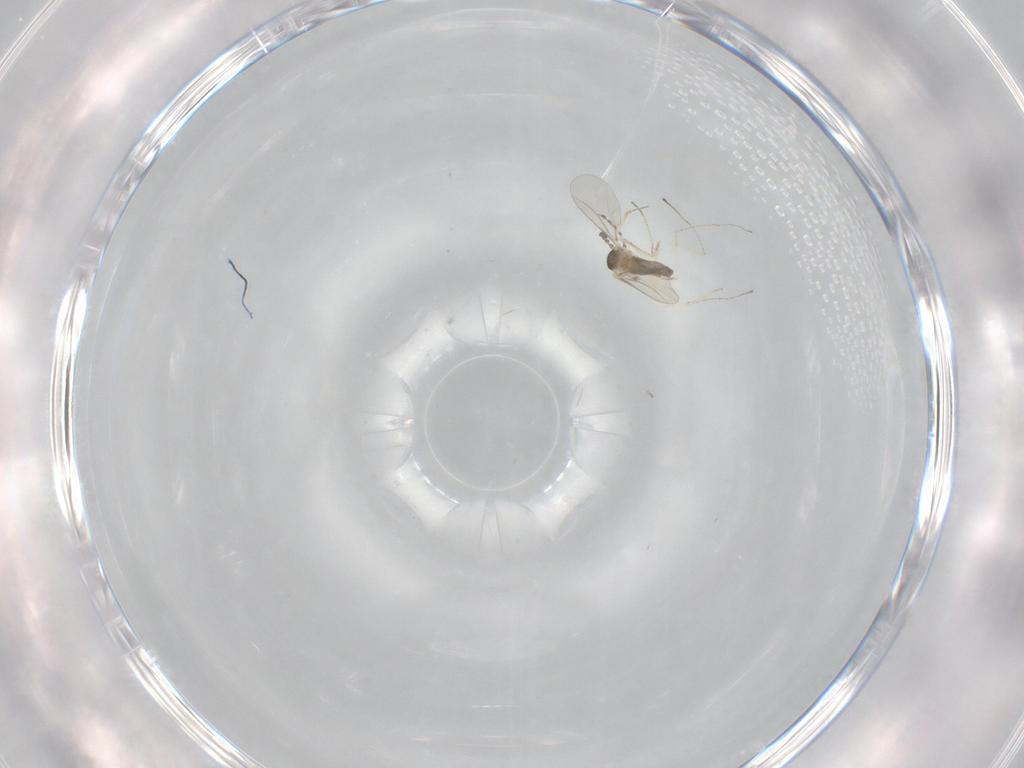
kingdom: Animalia
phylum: Arthropoda
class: Insecta
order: Diptera
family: Cecidomyiidae
